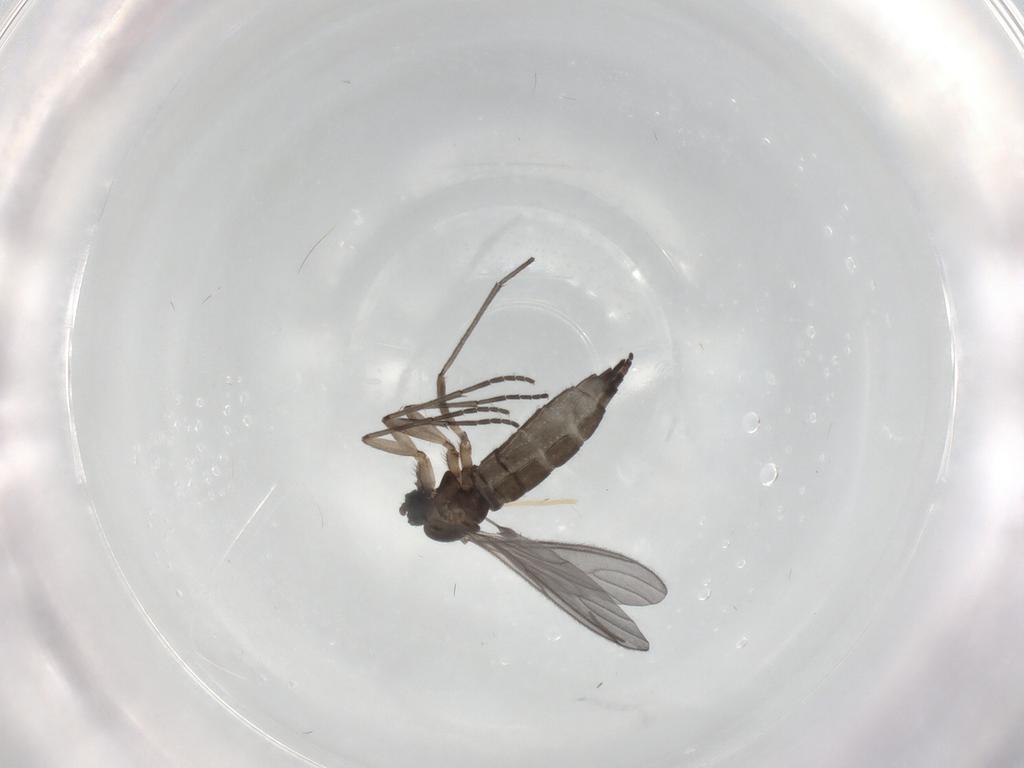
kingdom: Animalia
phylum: Arthropoda
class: Insecta
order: Diptera
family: Sciaridae
